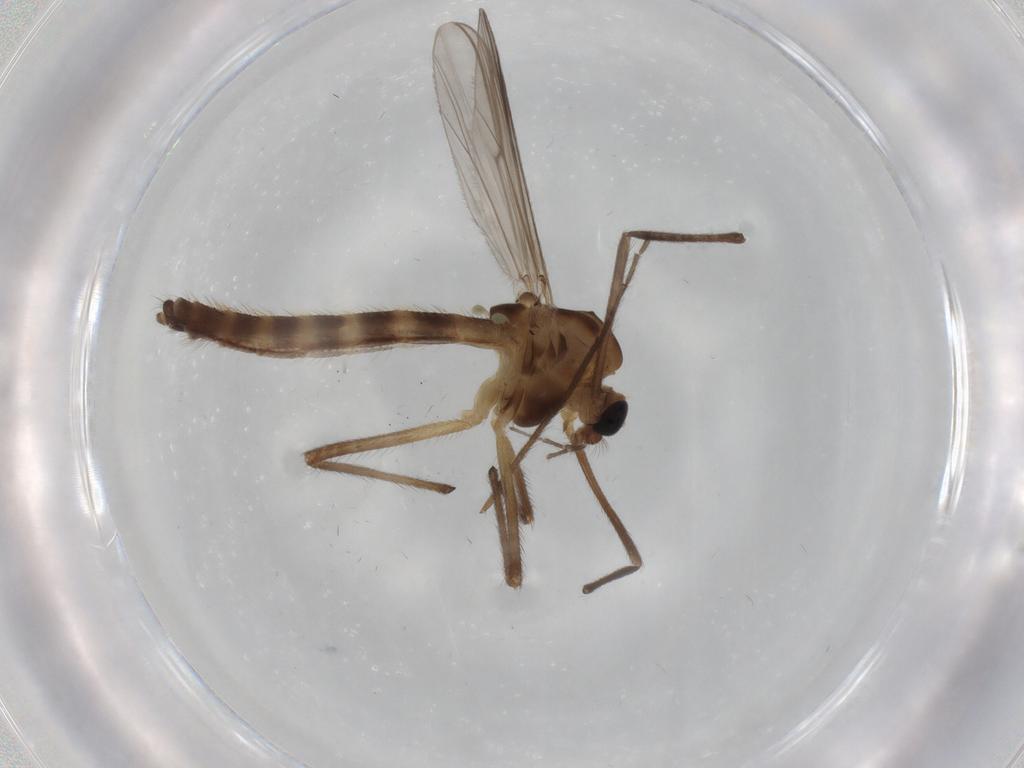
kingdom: Animalia
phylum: Arthropoda
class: Insecta
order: Diptera
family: Chironomidae
